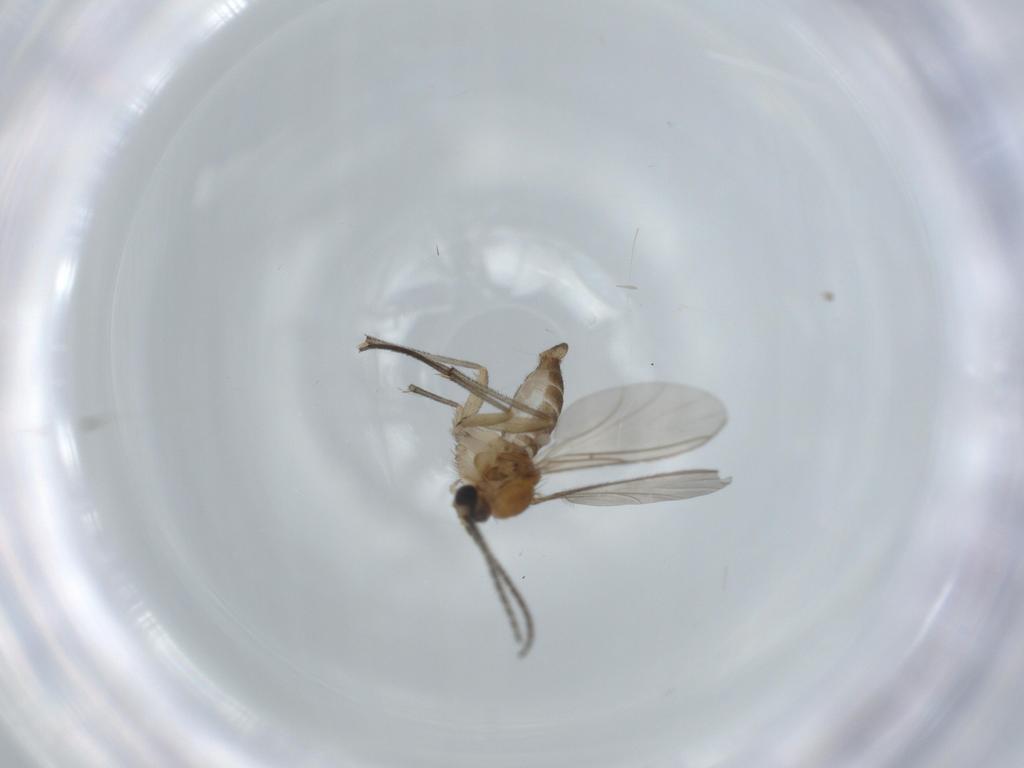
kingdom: Animalia
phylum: Arthropoda
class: Insecta
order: Diptera
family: Sciaridae
